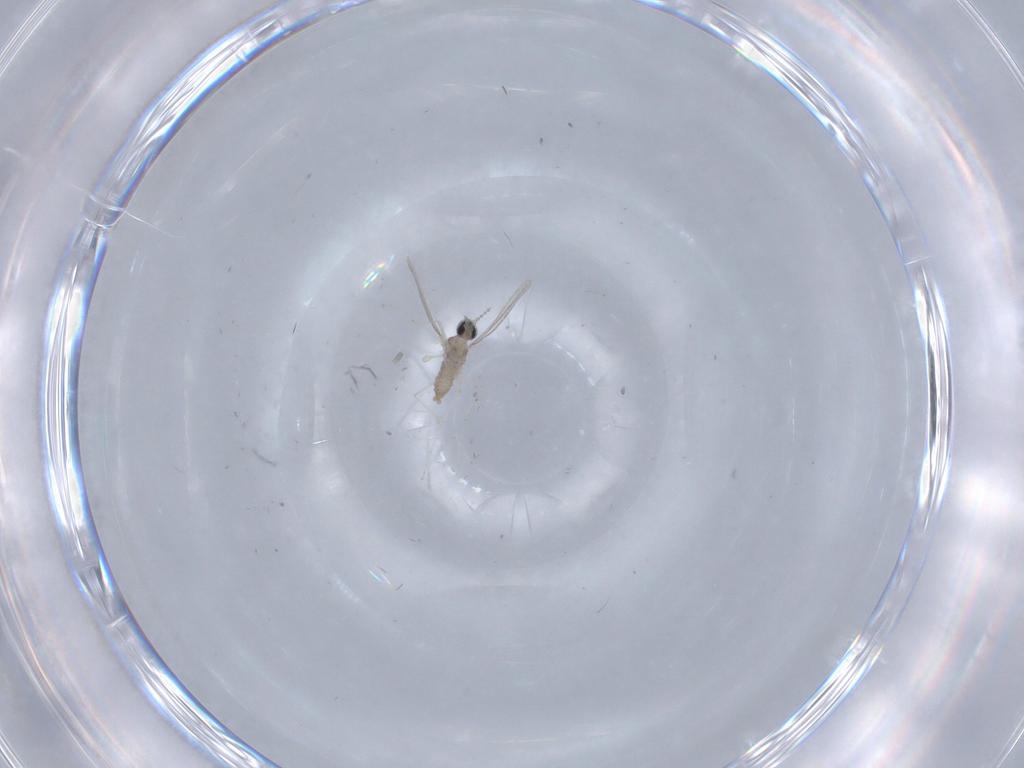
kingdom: Animalia
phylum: Arthropoda
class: Insecta
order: Diptera
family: Cecidomyiidae
